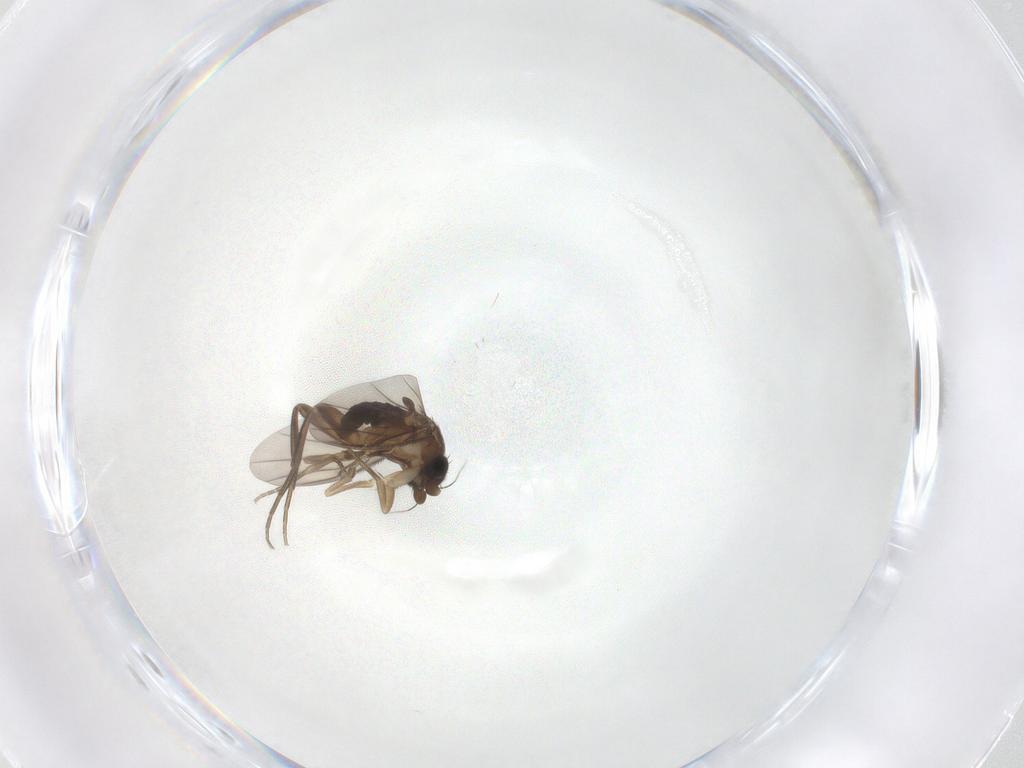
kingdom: Animalia
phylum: Arthropoda
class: Insecta
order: Diptera
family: Phoridae
